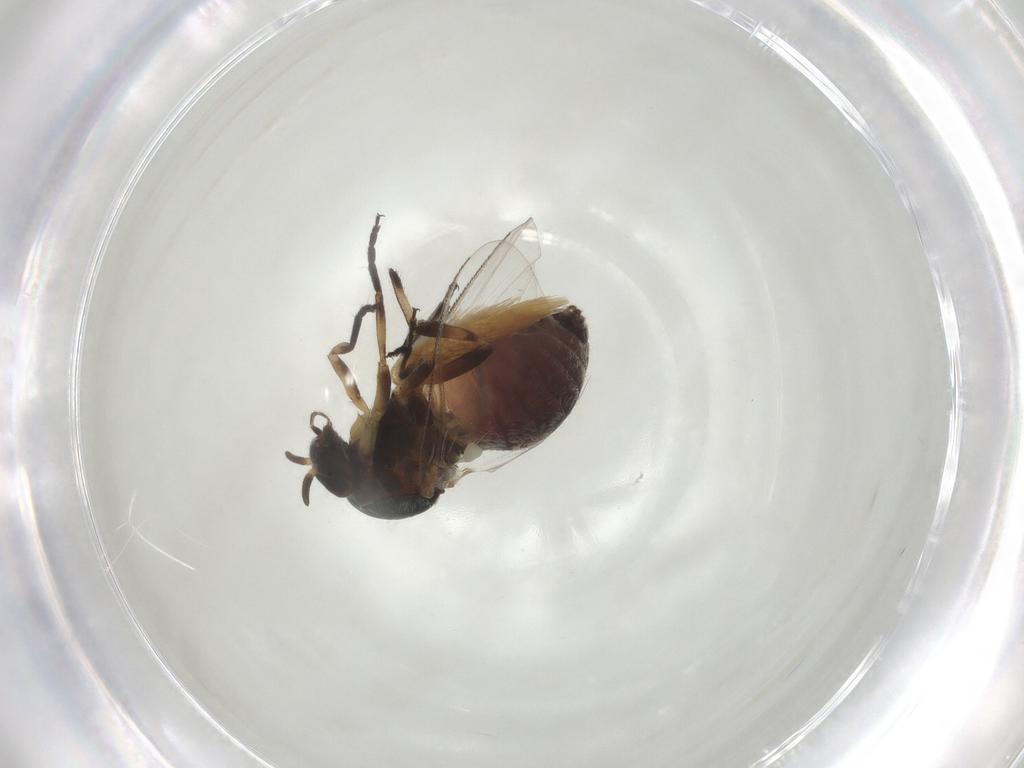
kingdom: Animalia
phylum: Arthropoda
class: Insecta
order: Diptera
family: Chironomidae
